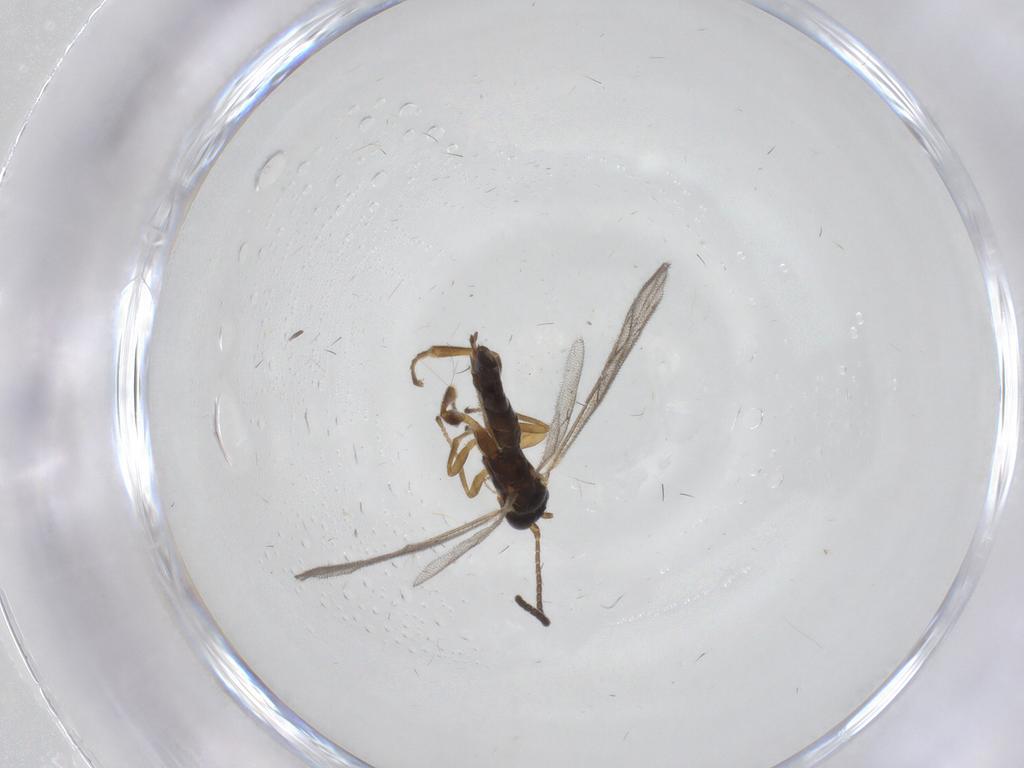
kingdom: Animalia
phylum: Arthropoda
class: Insecta
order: Hymenoptera
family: Ichneumonidae
